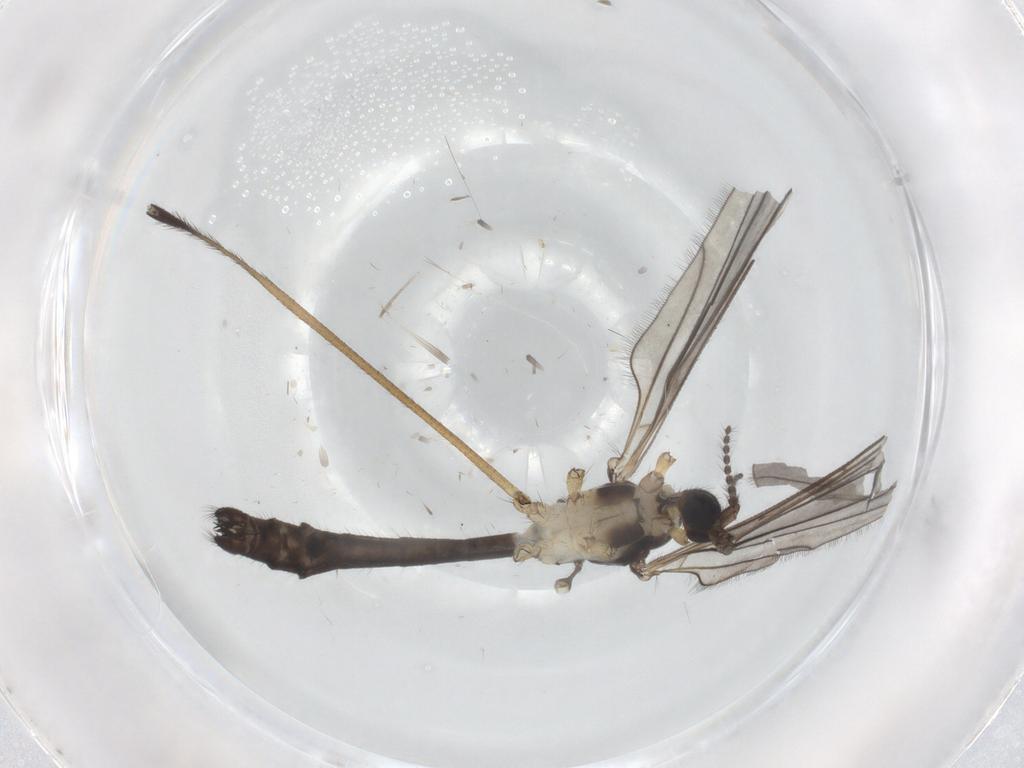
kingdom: Animalia
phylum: Arthropoda
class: Insecta
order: Diptera
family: Limoniidae
